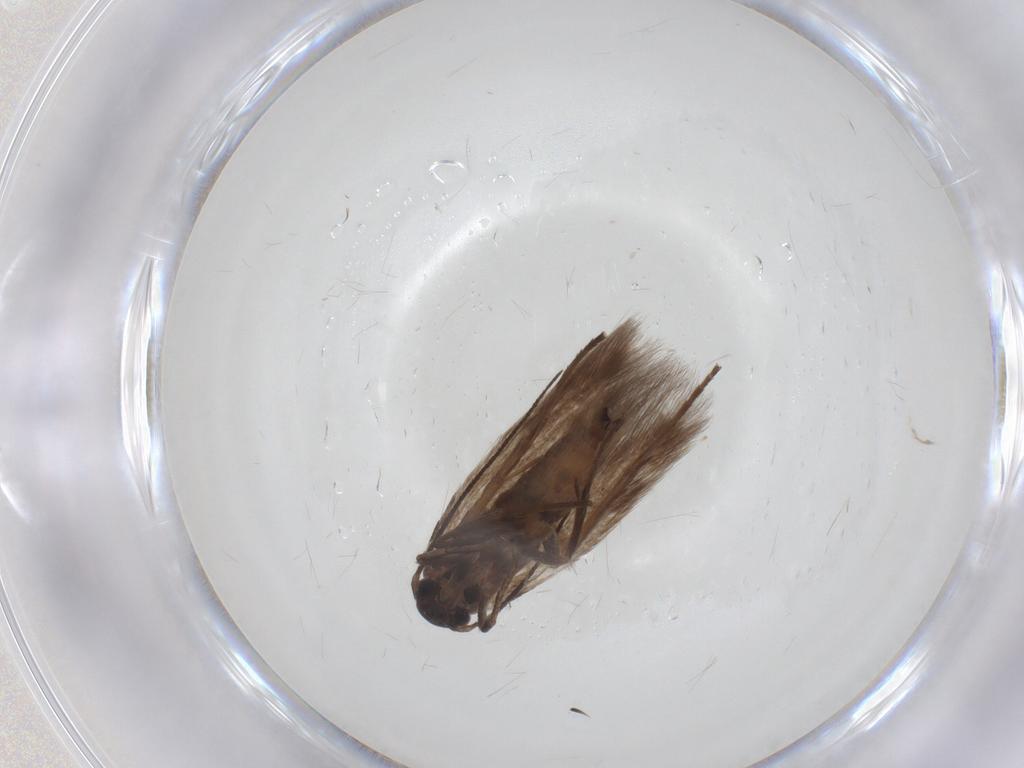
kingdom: Animalia
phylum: Arthropoda
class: Insecta
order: Lepidoptera
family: Scythrididae
